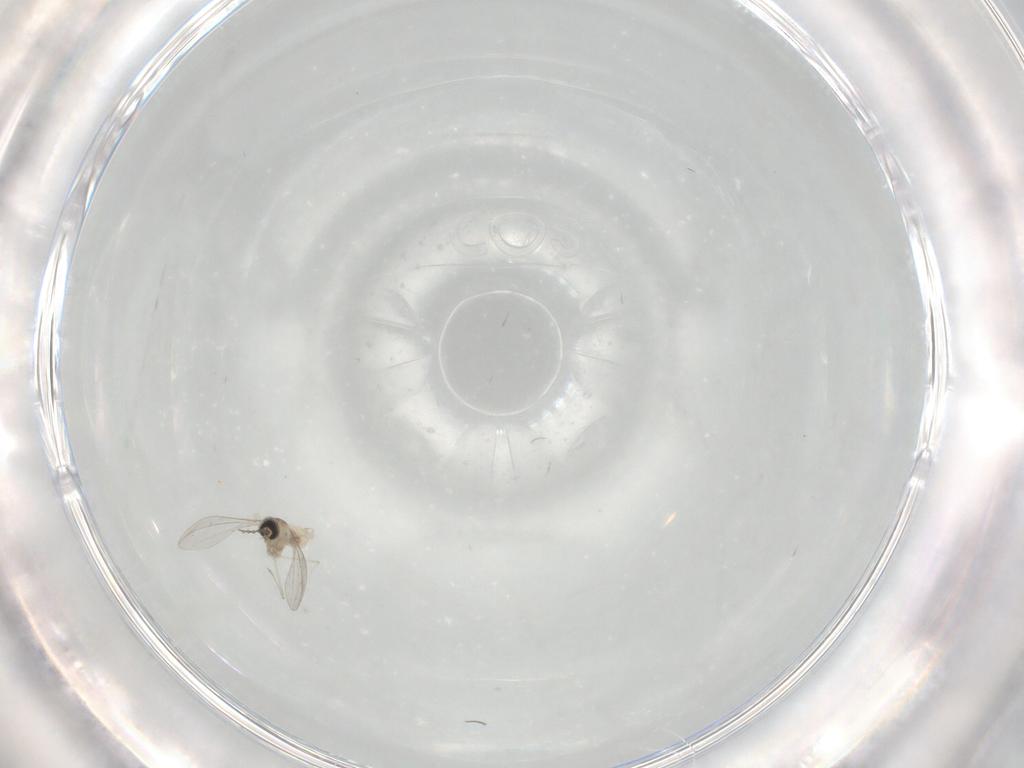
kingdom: Animalia
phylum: Arthropoda
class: Insecta
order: Diptera
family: Cecidomyiidae
